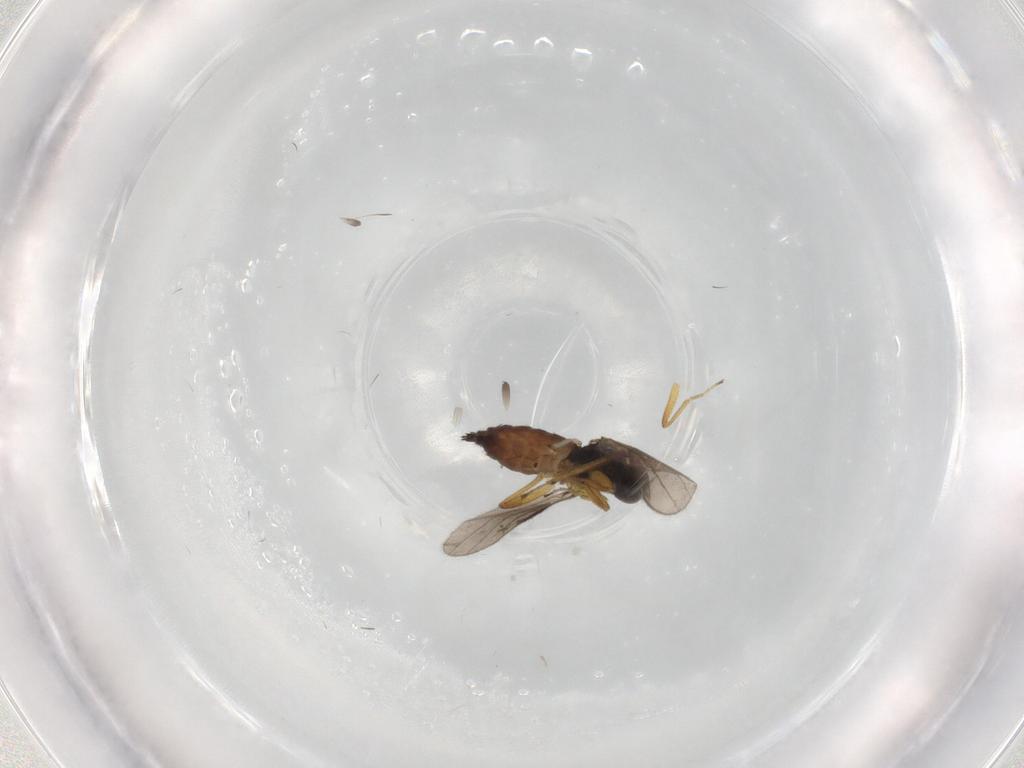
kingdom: Animalia
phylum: Arthropoda
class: Insecta
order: Diptera
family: Hybotidae
